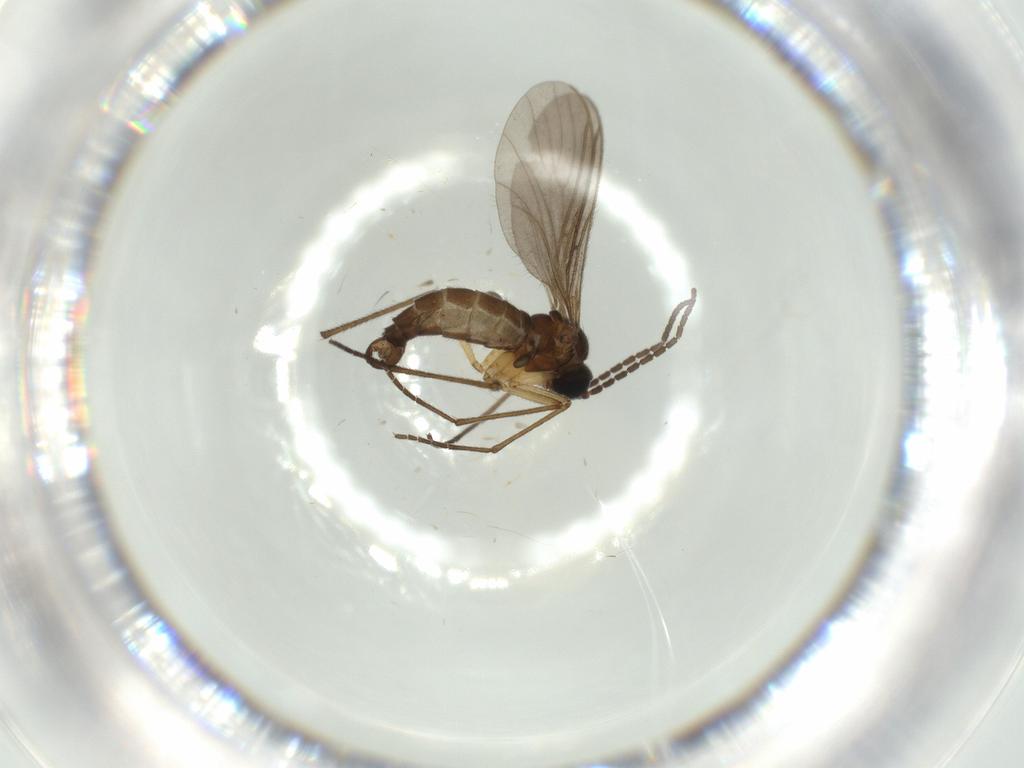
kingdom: Animalia
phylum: Arthropoda
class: Insecta
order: Diptera
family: Sciaridae
